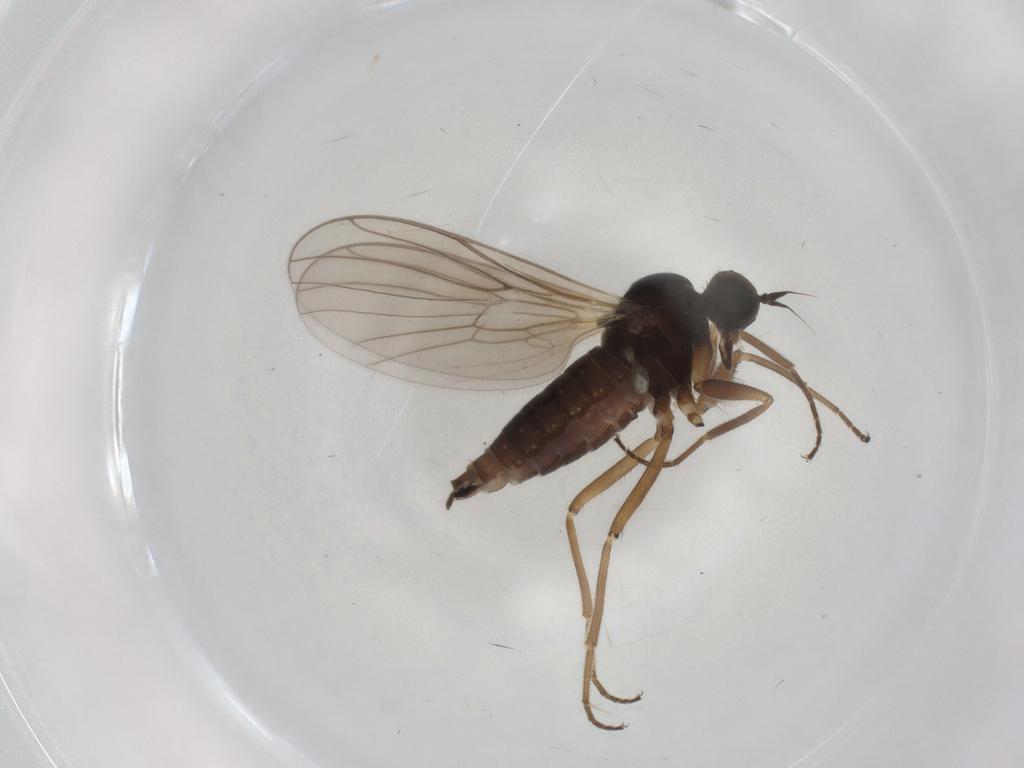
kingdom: Animalia
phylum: Arthropoda
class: Insecta
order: Diptera
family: Hybotidae
